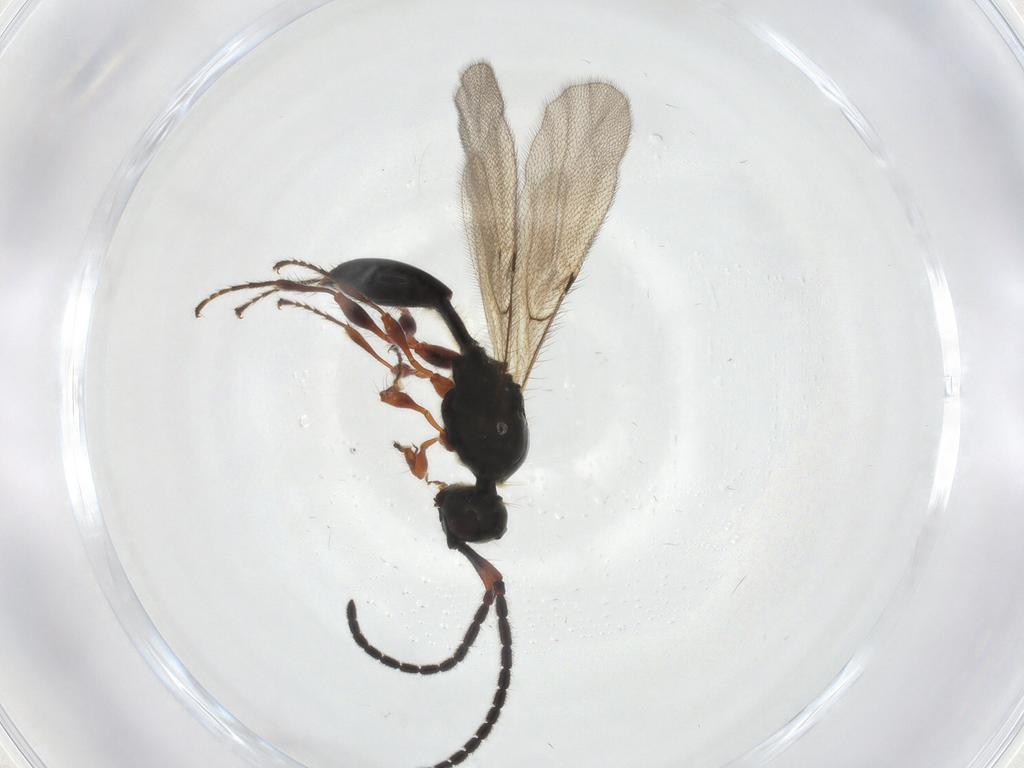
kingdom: Animalia
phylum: Arthropoda
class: Insecta
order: Hymenoptera
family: Diapriidae
